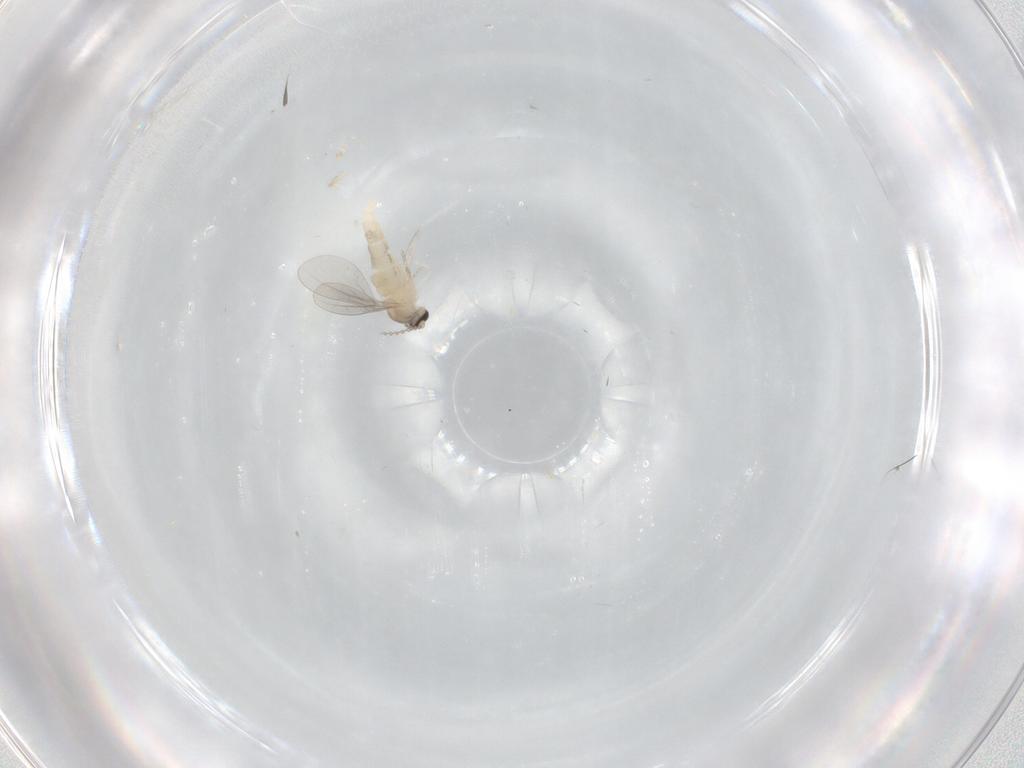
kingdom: Animalia
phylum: Arthropoda
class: Insecta
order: Diptera
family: Cecidomyiidae
